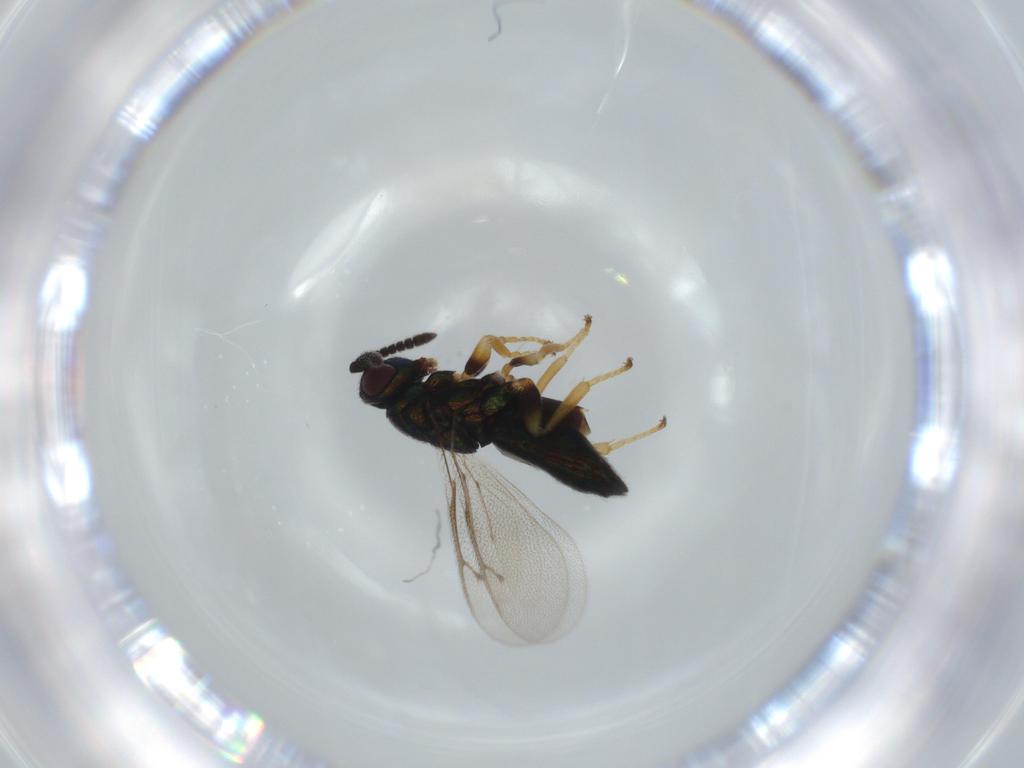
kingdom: Animalia
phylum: Arthropoda
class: Insecta
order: Hymenoptera
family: Pteromalidae
